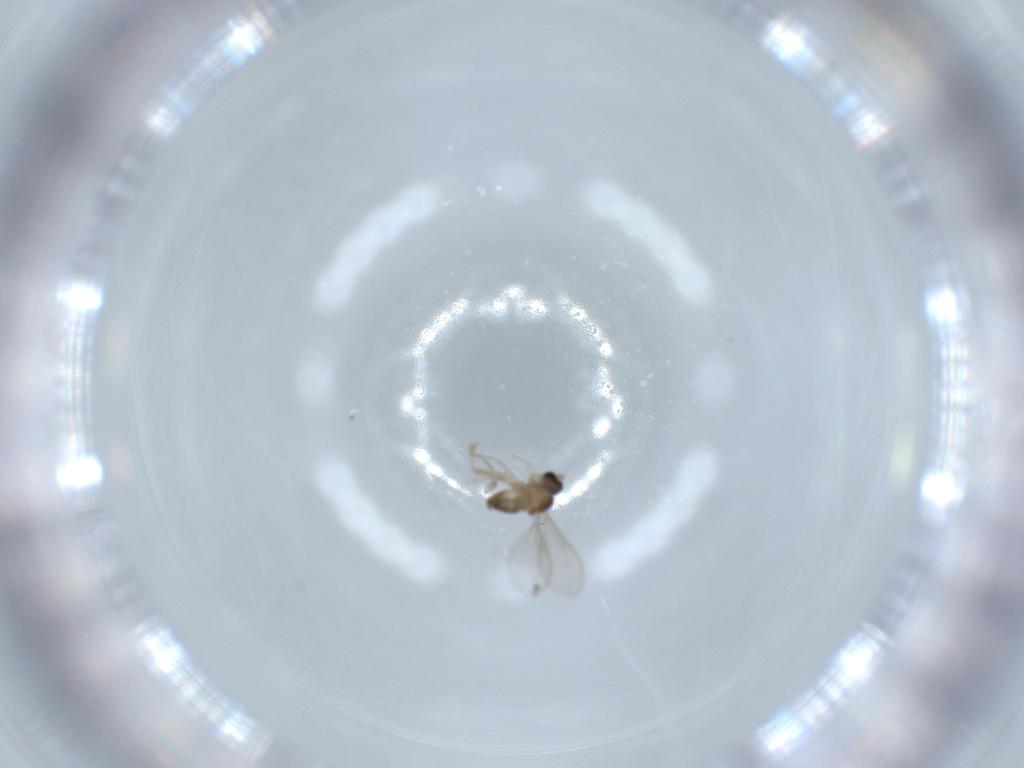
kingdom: Animalia
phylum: Arthropoda
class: Insecta
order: Diptera
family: Cecidomyiidae
